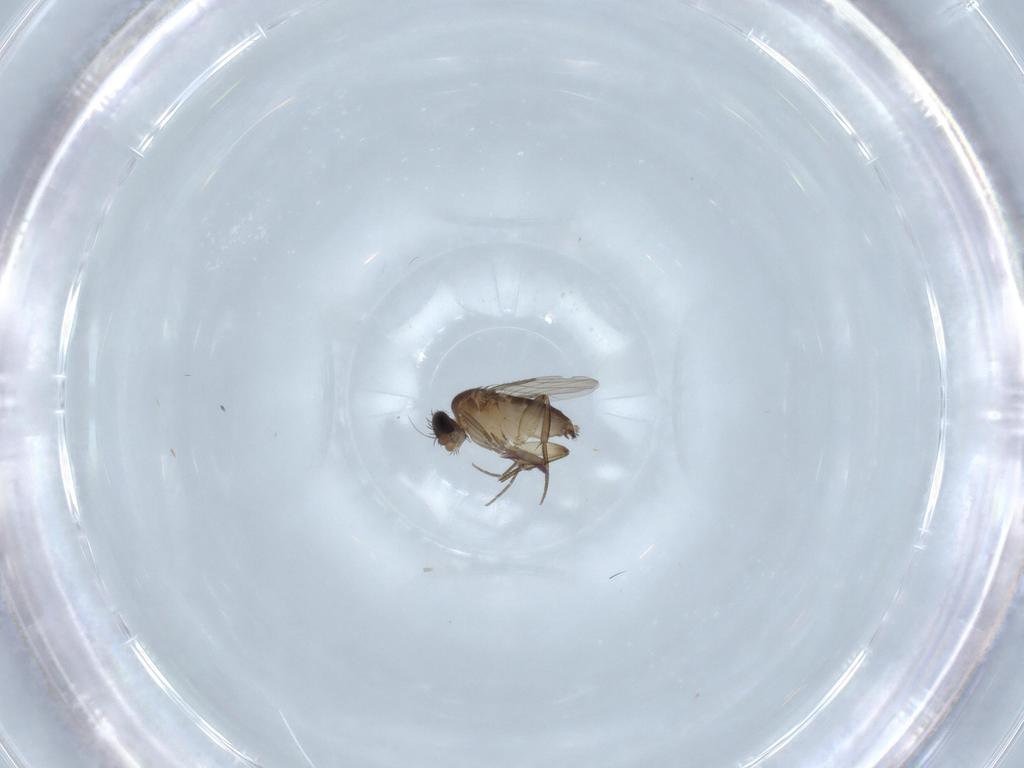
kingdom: Animalia
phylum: Arthropoda
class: Insecta
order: Diptera
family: Phoridae
